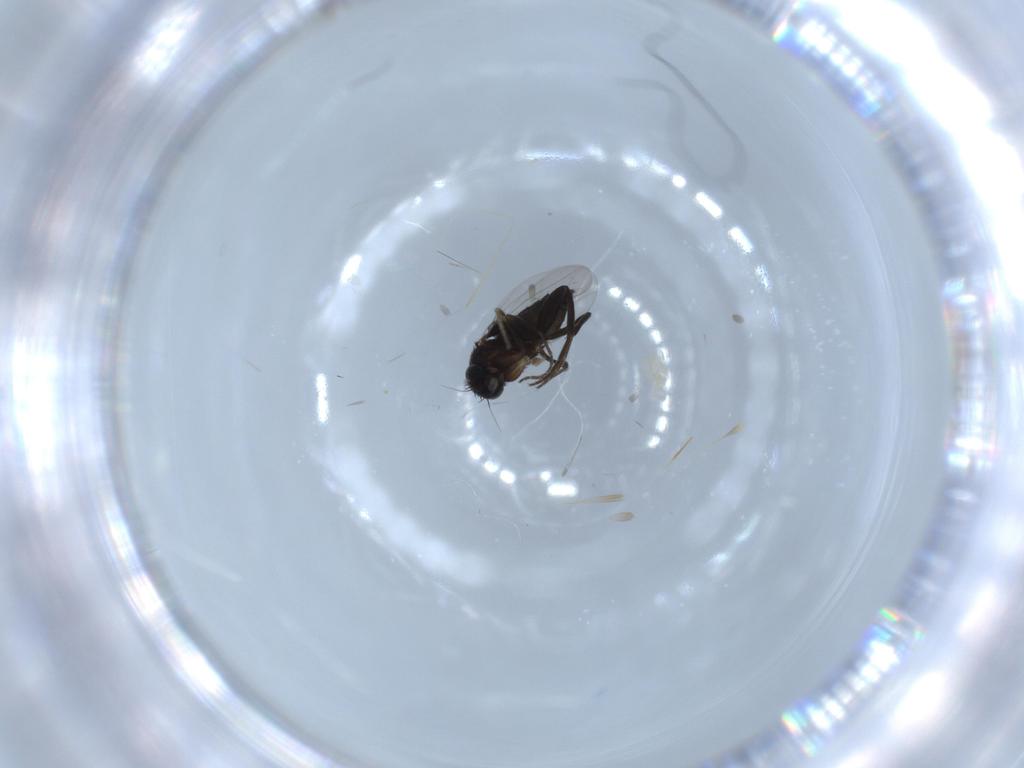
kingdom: Animalia
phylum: Arthropoda
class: Insecta
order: Diptera
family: Phoridae
